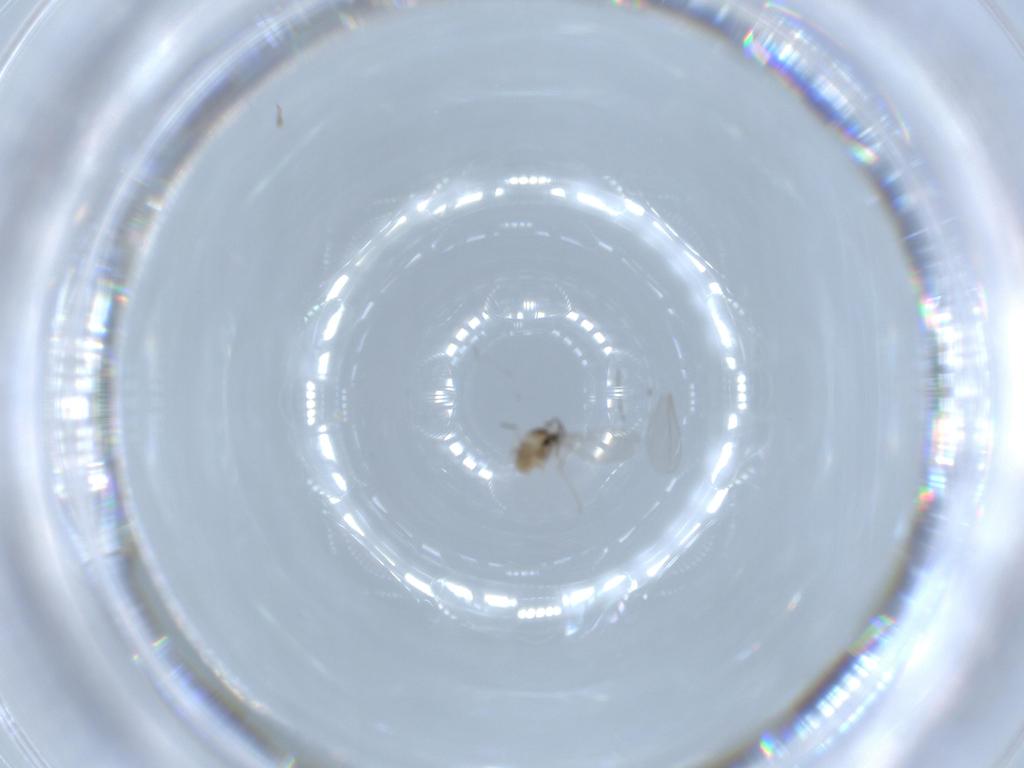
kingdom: Animalia
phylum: Arthropoda
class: Insecta
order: Diptera
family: Cecidomyiidae
